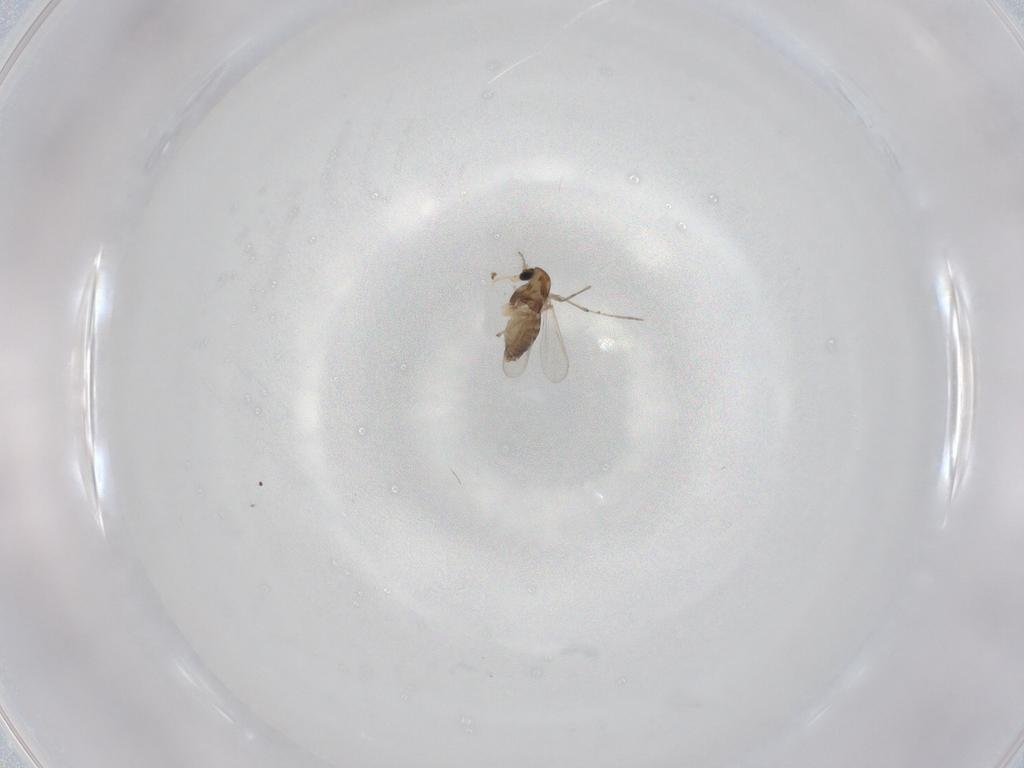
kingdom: Animalia
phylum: Arthropoda
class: Insecta
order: Diptera
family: Chironomidae
